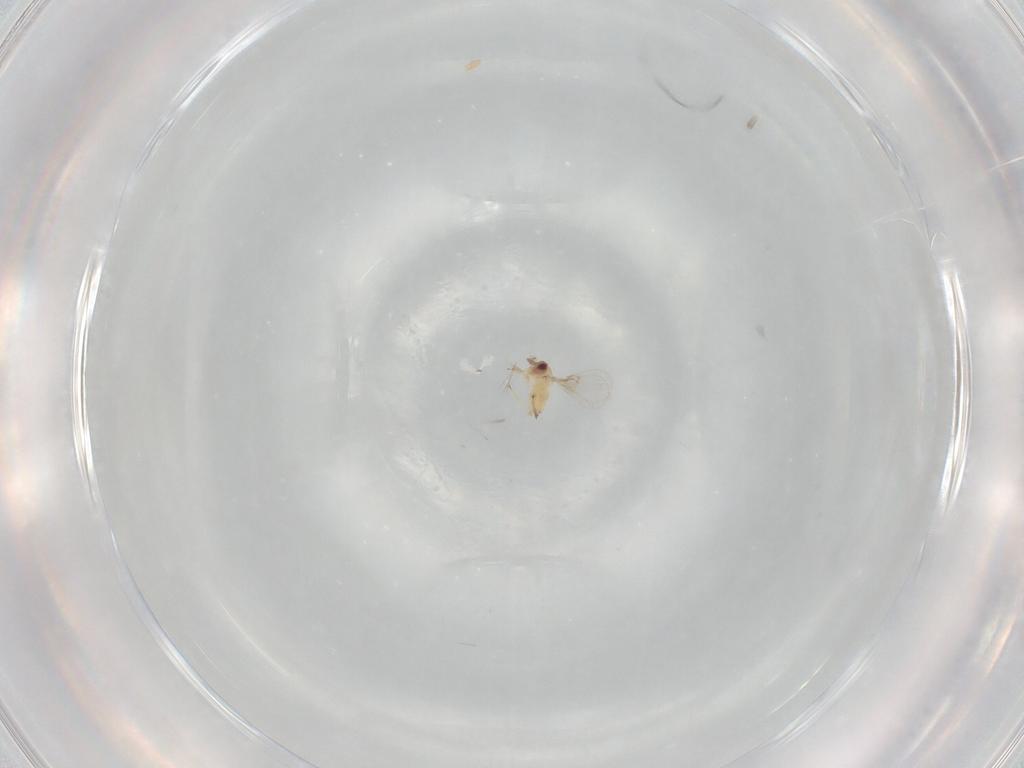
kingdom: Animalia
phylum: Arthropoda
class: Insecta
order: Hymenoptera
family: Trichogrammatidae
